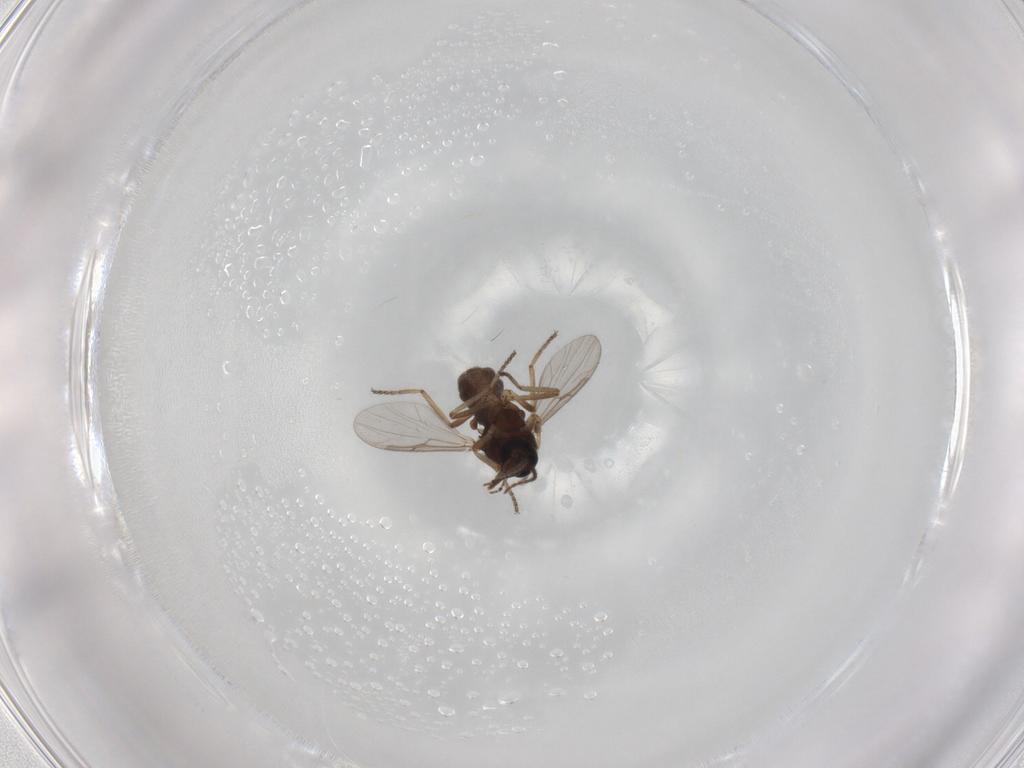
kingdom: Animalia
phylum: Arthropoda
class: Insecta
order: Diptera
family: Ceratopogonidae
